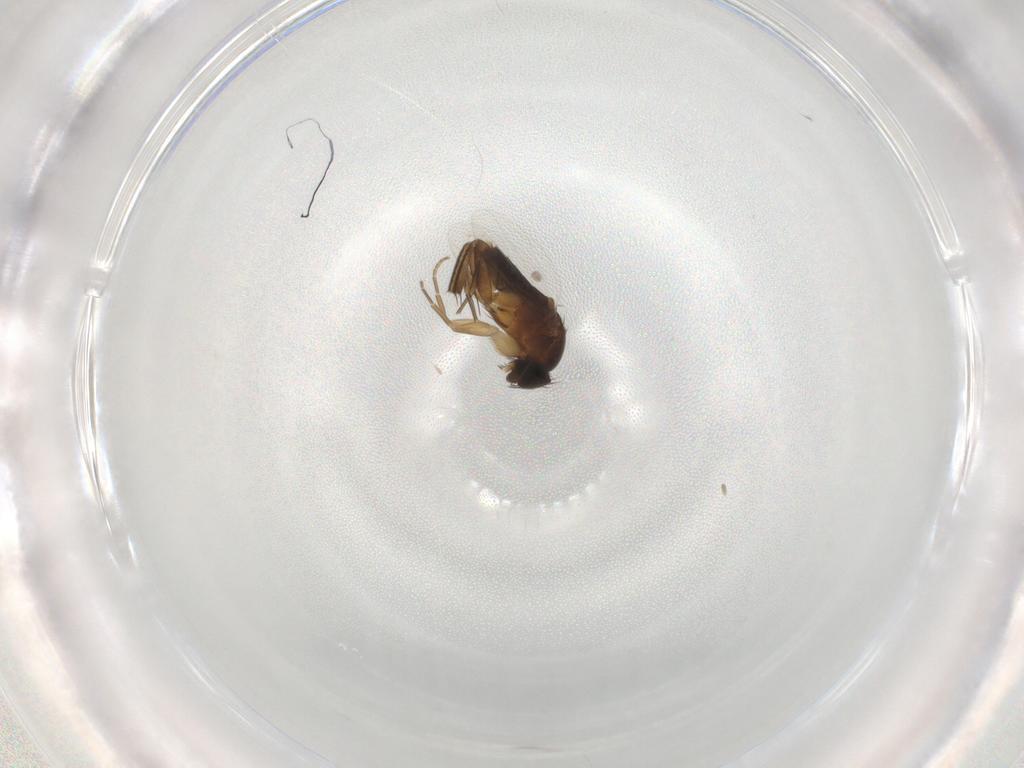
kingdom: Animalia
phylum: Arthropoda
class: Insecta
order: Diptera
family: Phoridae
